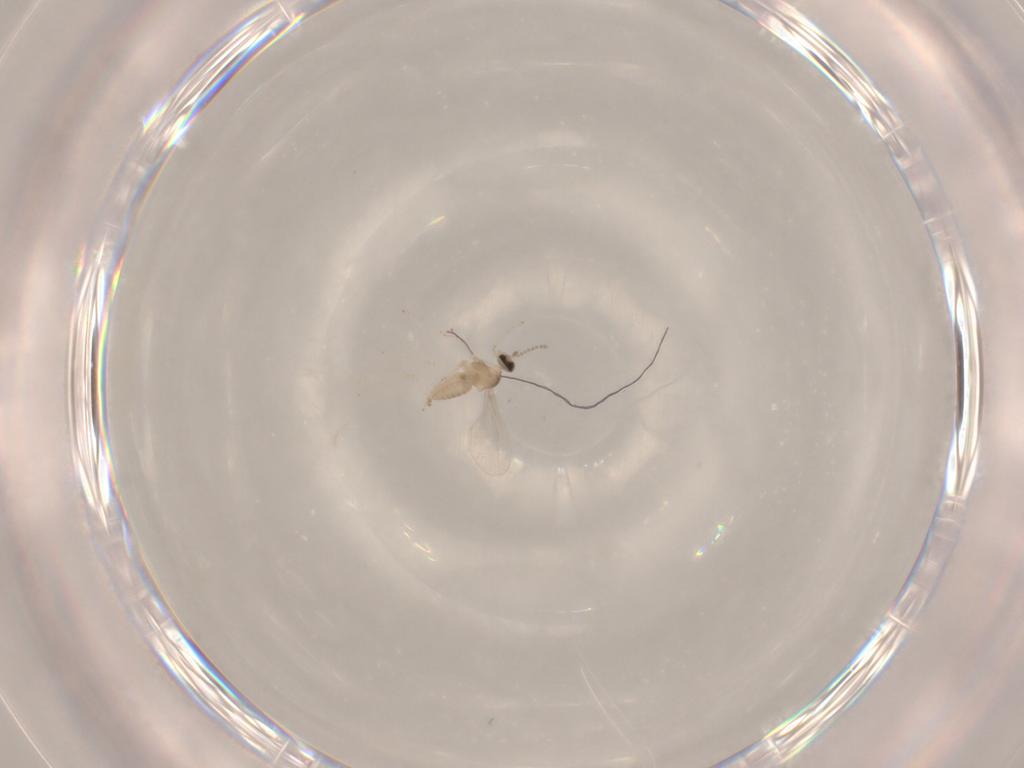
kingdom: Animalia
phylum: Arthropoda
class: Insecta
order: Diptera
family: Cecidomyiidae
